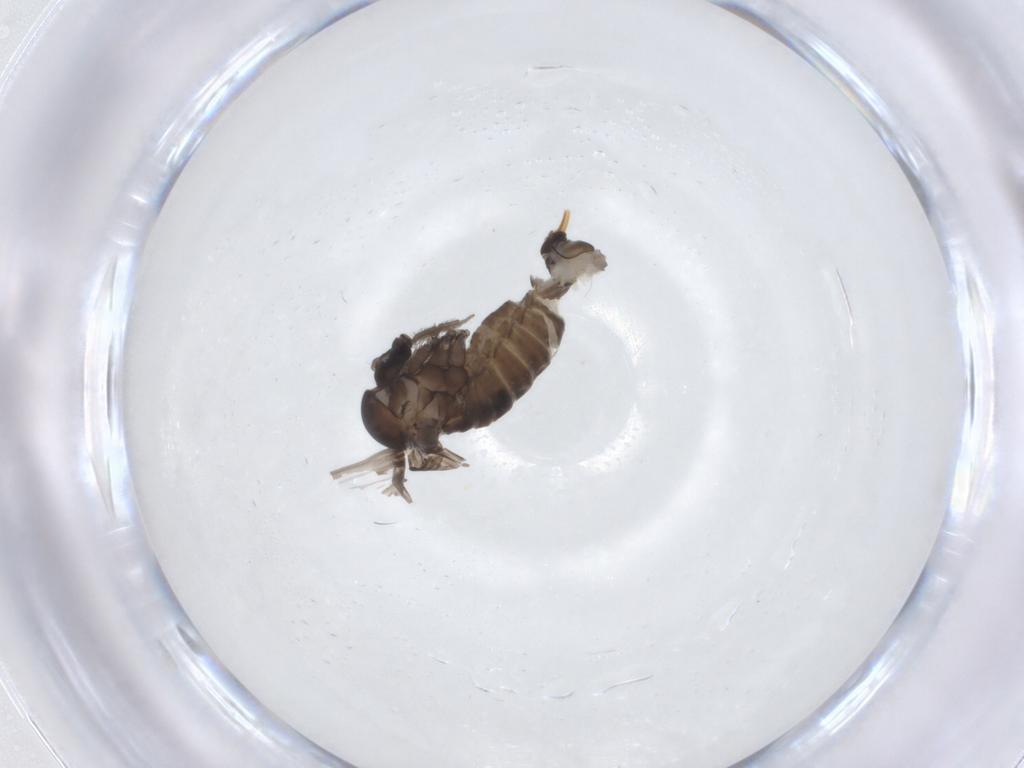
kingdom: Animalia
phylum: Arthropoda
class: Insecta
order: Diptera
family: Psychodidae
